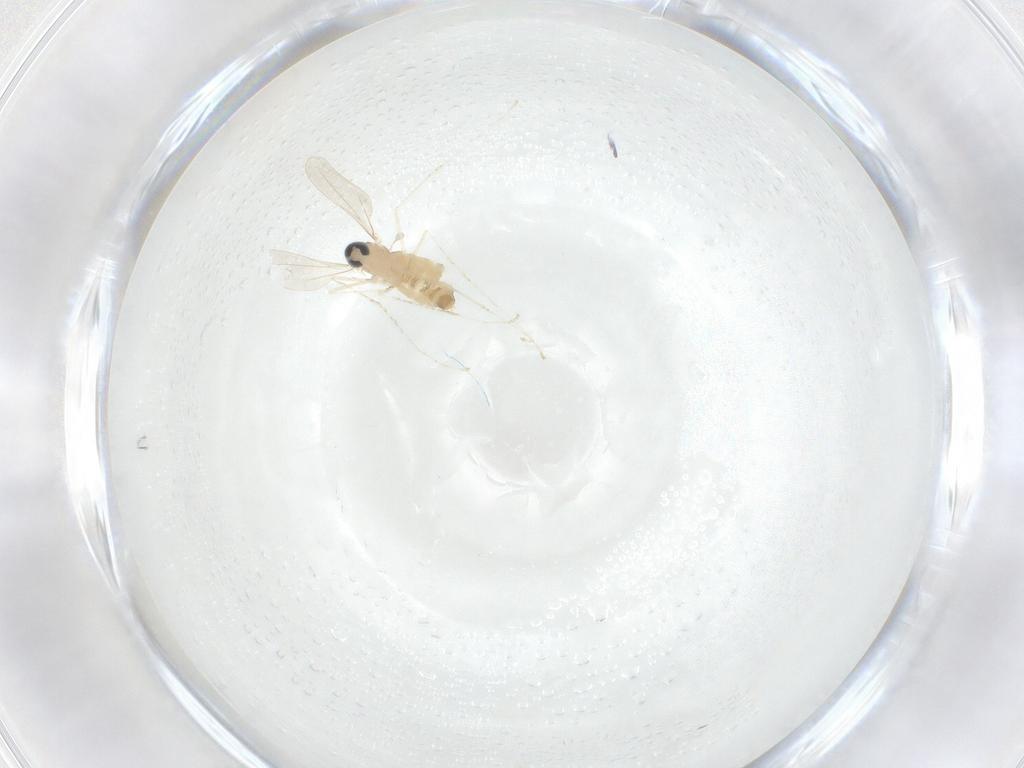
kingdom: Animalia
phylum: Arthropoda
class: Insecta
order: Diptera
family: Cecidomyiidae
